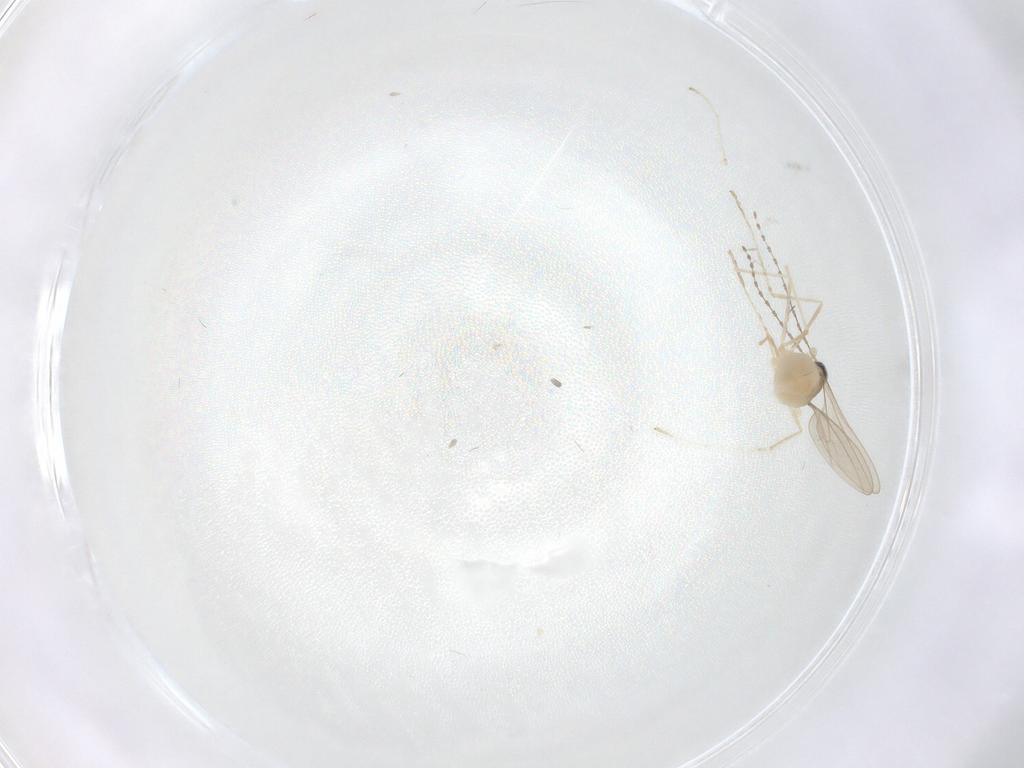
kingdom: Animalia
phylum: Arthropoda
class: Insecta
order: Diptera
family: Cecidomyiidae
